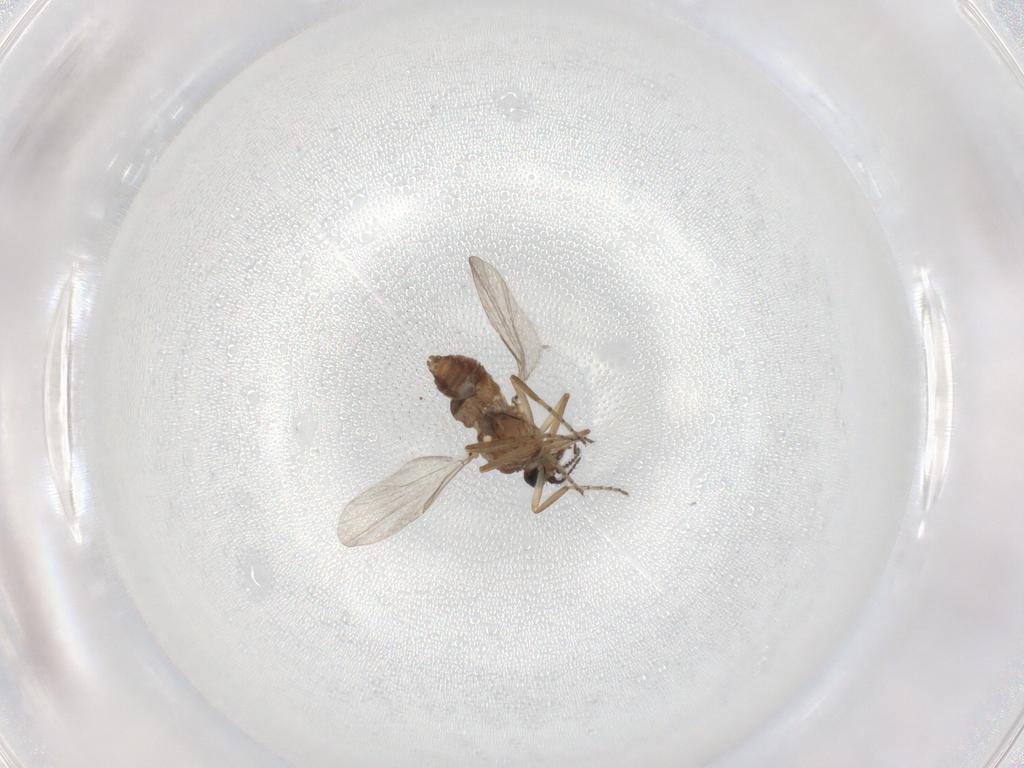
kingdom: Animalia
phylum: Arthropoda
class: Insecta
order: Diptera
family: Ceratopogonidae
